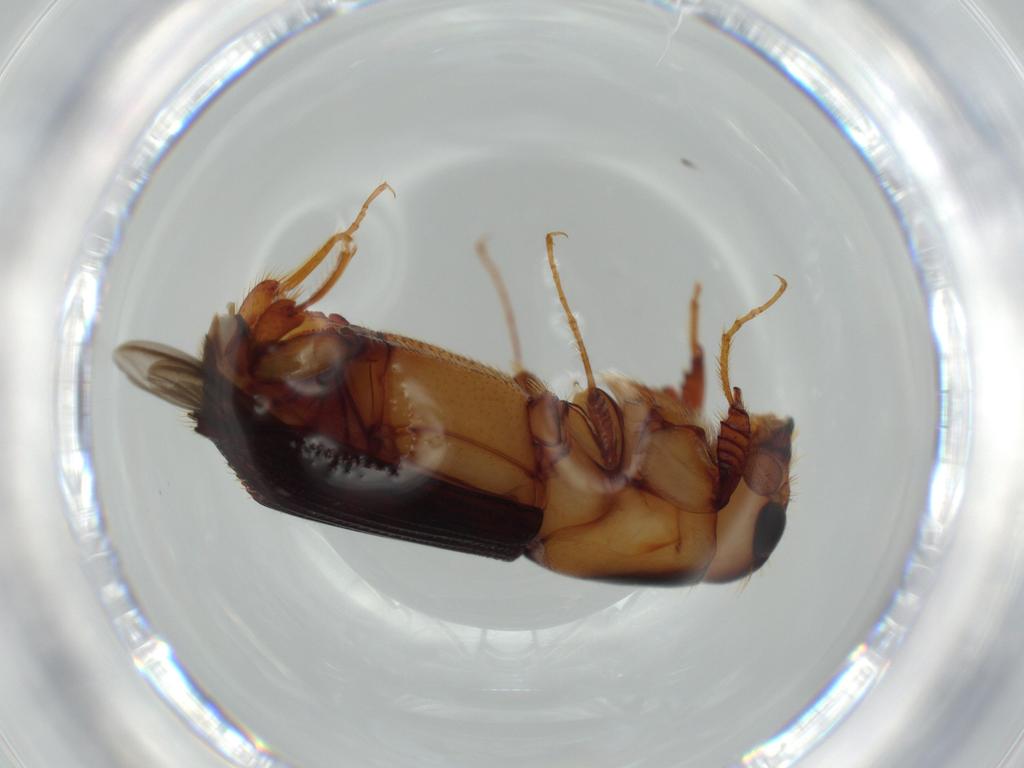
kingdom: Animalia
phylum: Arthropoda
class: Insecta
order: Coleoptera
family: Curculionidae
